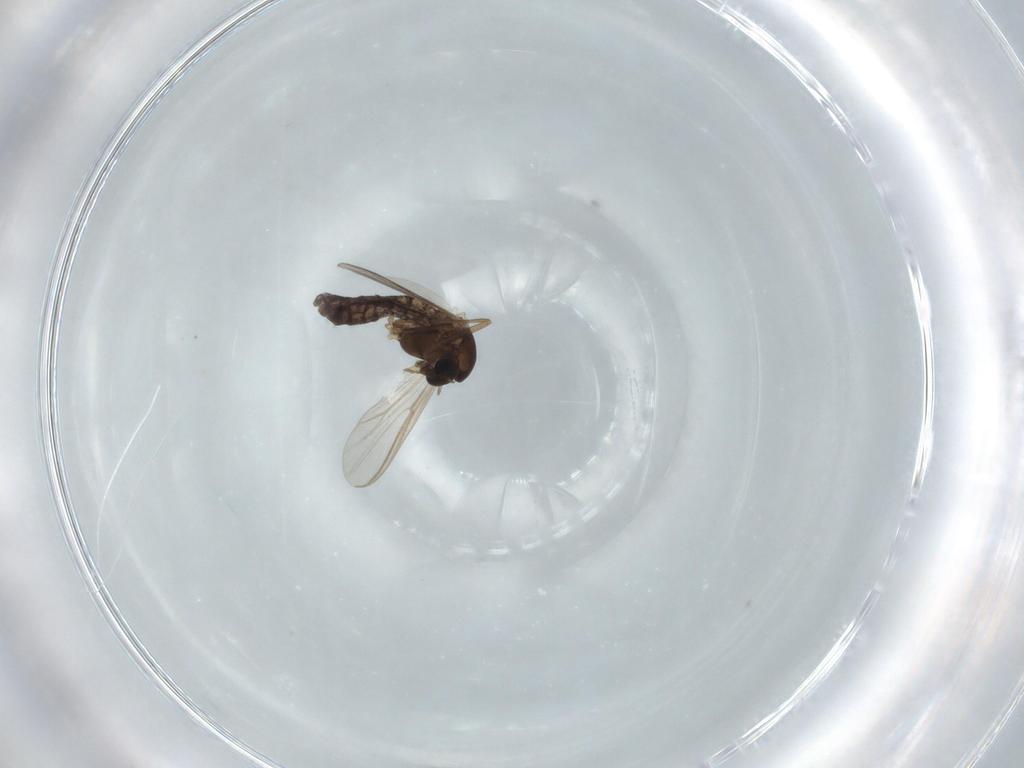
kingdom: Animalia
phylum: Arthropoda
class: Insecta
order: Diptera
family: Chironomidae
